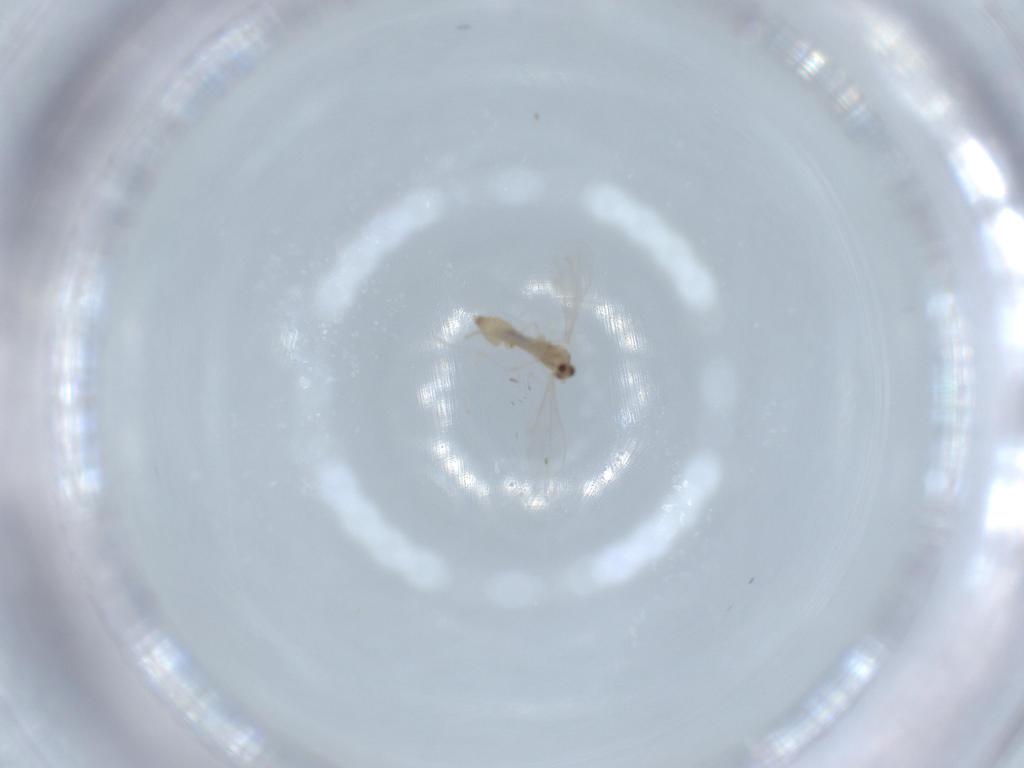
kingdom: Animalia
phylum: Arthropoda
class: Insecta
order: Diptera
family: Cecidomyiidae
